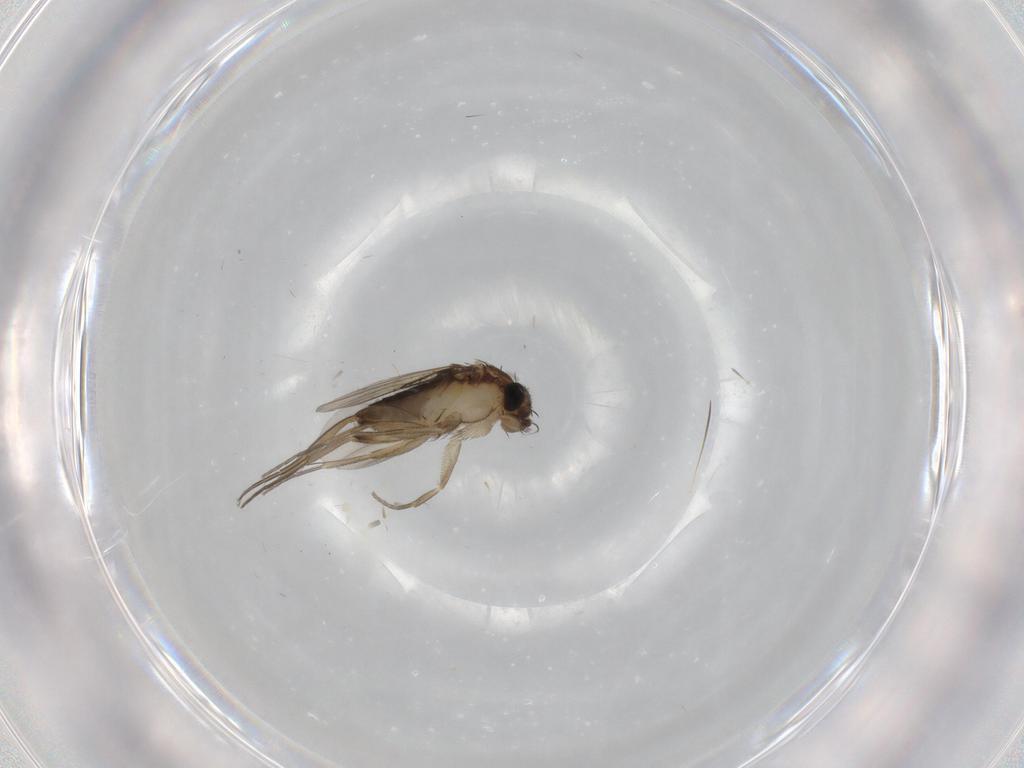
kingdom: Animalia
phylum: Arthropoda
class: Insecta
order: Diptera
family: Phoridae
